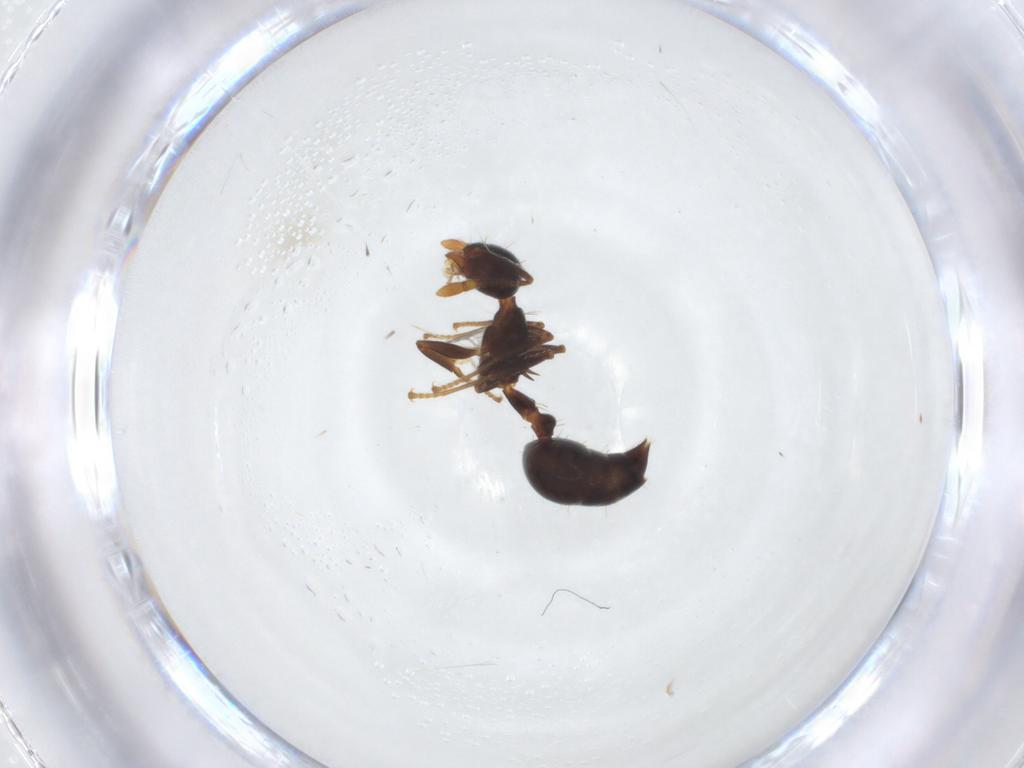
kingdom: Animalia
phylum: Arthropoda
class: Insecta
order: Hymenoptera
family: Formicidae
